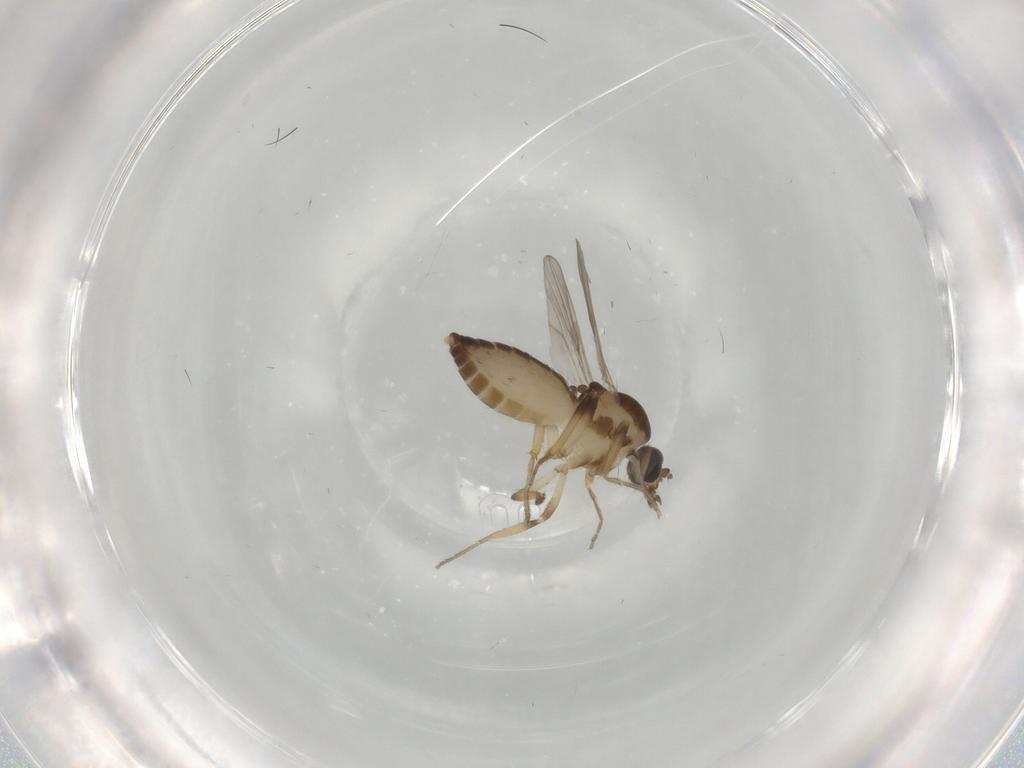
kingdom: Animalia
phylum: Arthropoda
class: Insecta
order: Diptera
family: Ceratopogonidae
